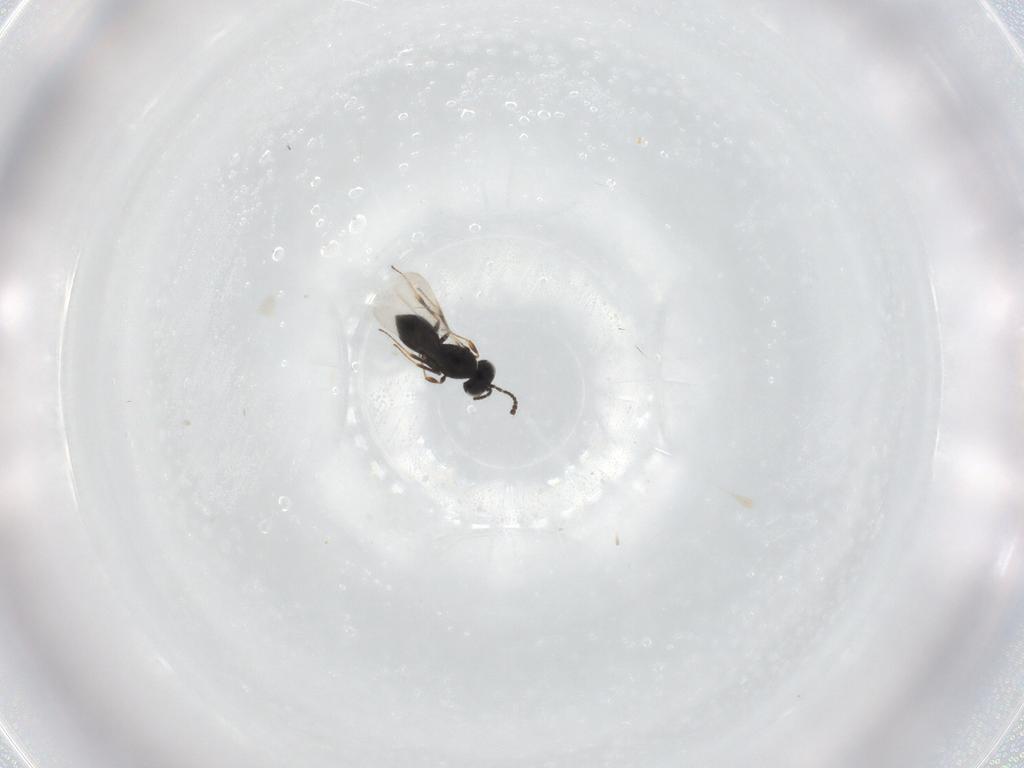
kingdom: Animalia
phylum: Arthropoda
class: Insecta
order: Hymenoptera
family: Scelionidae
